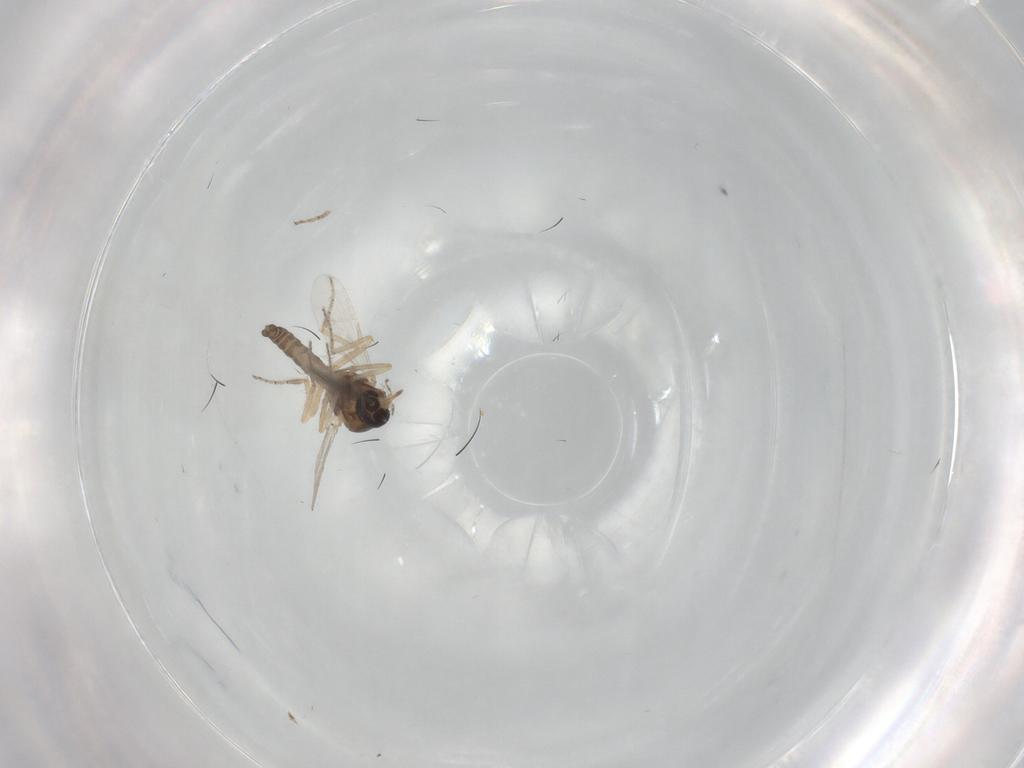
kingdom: Animalia
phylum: Arthropoda
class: Insecta
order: Diptera
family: Ceratopogonidae
